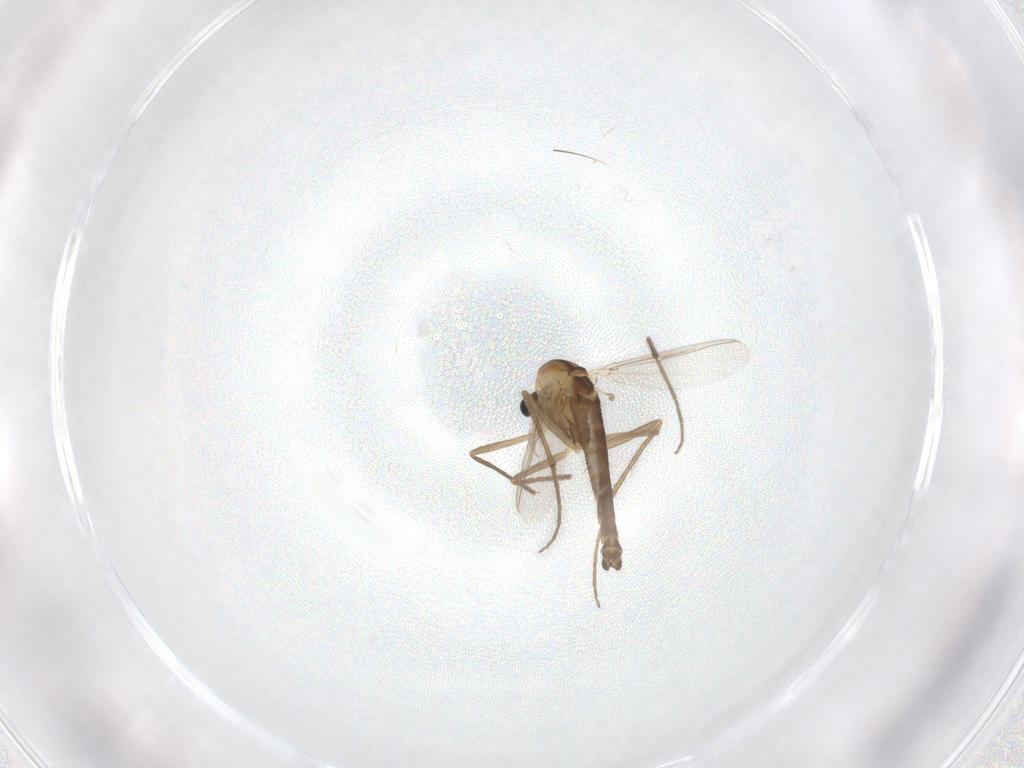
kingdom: Animalia
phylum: Arthropoda
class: Insecta
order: Diptera
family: Chironomidae
